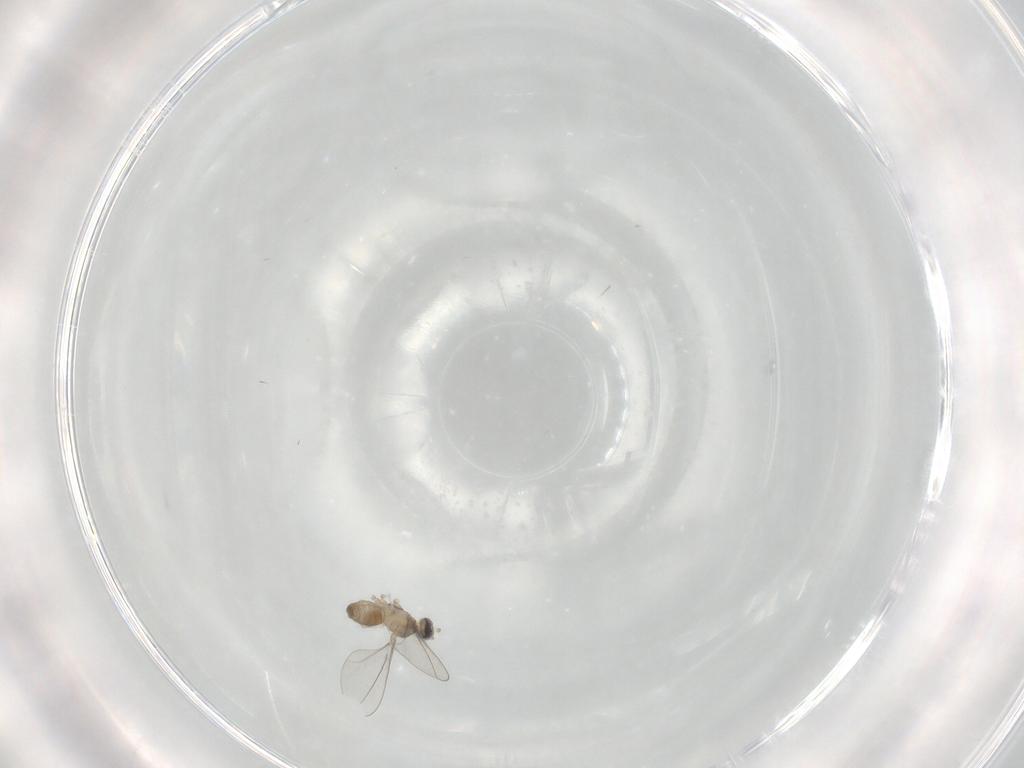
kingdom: Animalia
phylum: Arthropoda
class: Insecta
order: Diptera
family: Phoridae
